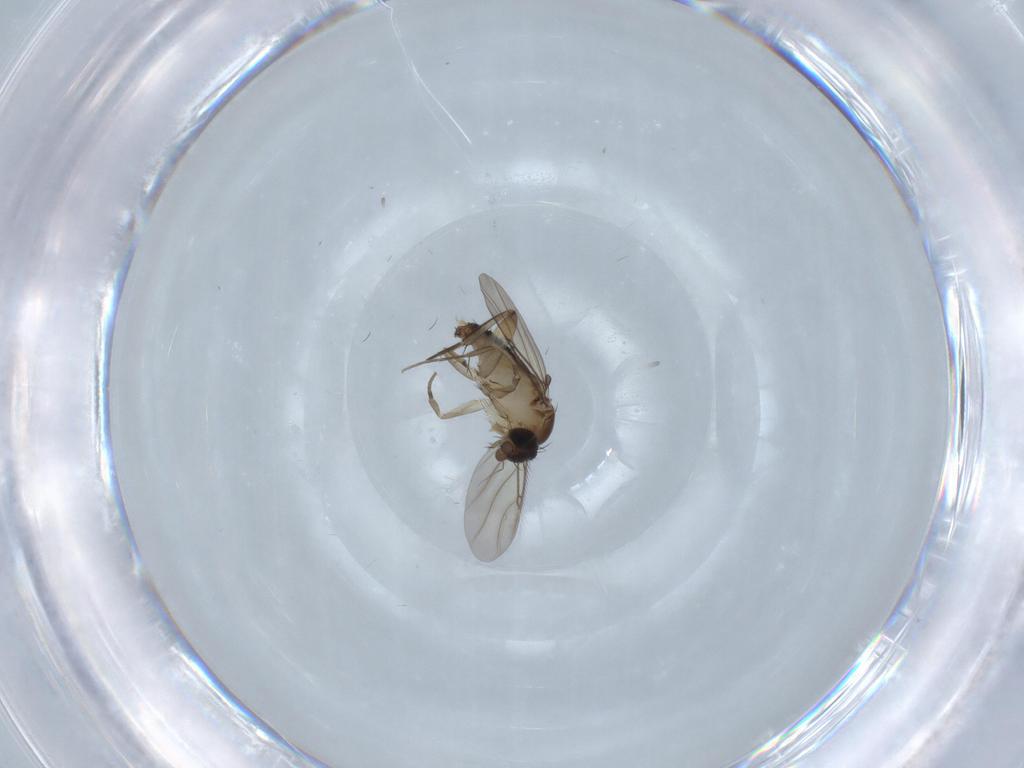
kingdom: Animalia
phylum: Arthropoda
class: Insecta
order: Diptera
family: Phoridae
